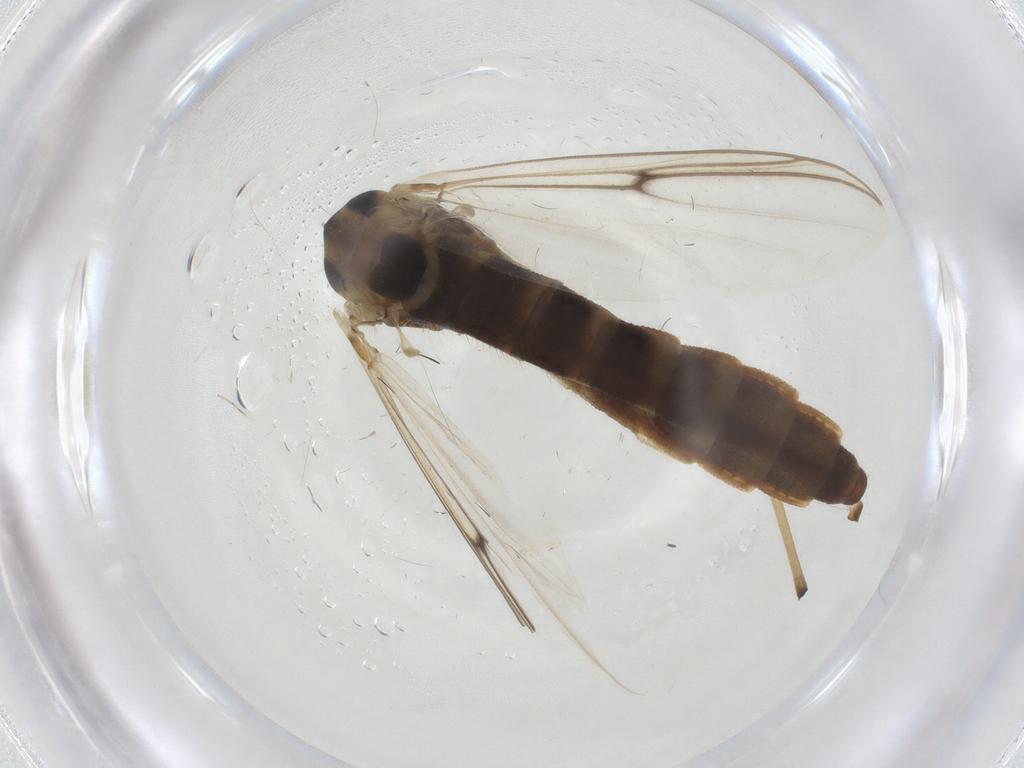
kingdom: Animalia
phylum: Arthropoda
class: Insecta
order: Diptera
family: Chironomidae
